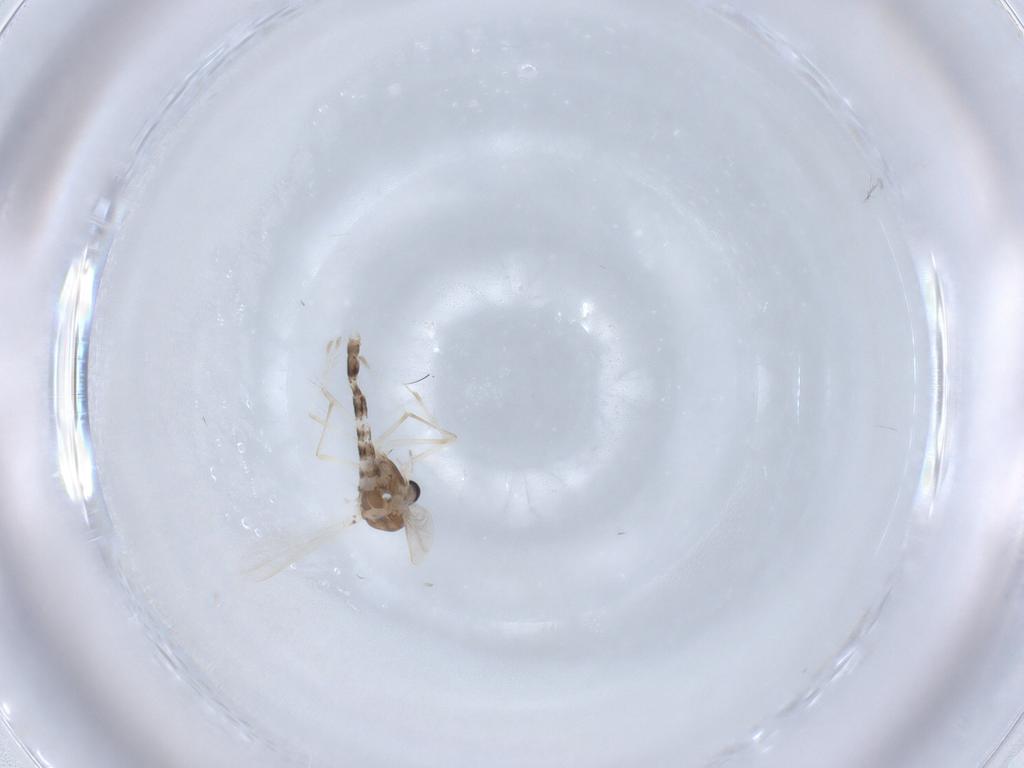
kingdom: Animalia
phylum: Arthropoda
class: Insecta
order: Diptera
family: Chironomidae
